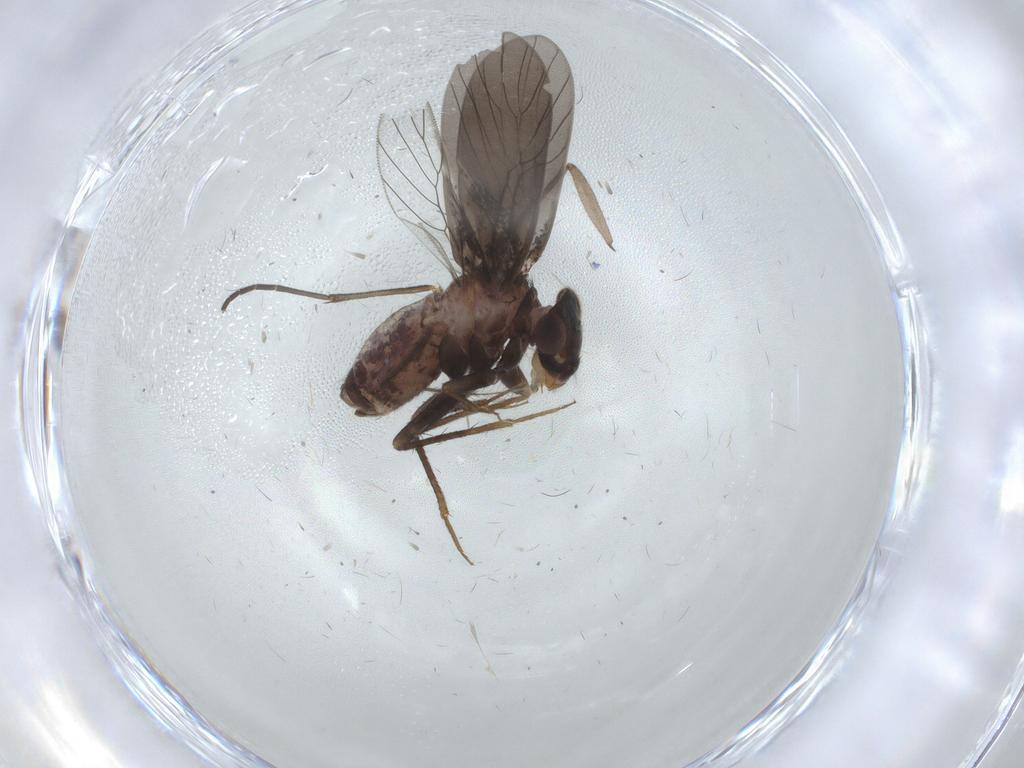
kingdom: Animalia
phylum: Arthropoda
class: Insecta
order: Psocodea
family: Lepidopsocidae
